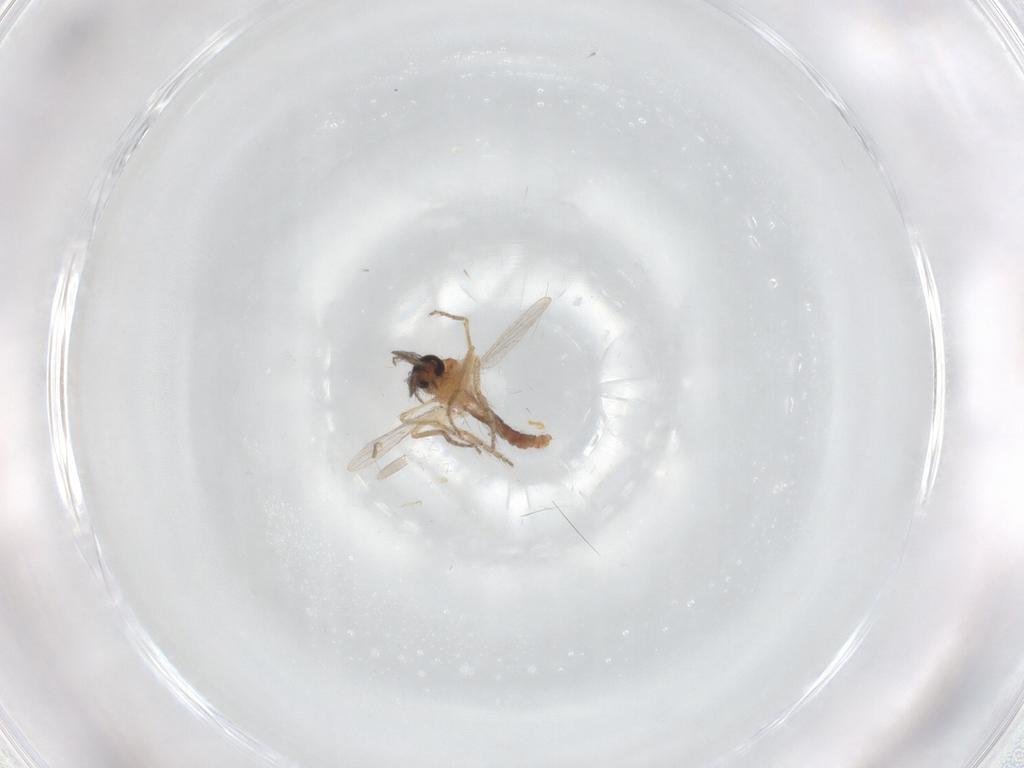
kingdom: Animalia
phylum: Arthropoda
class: Insecta
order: Diptera
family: Ceratopogonidae
